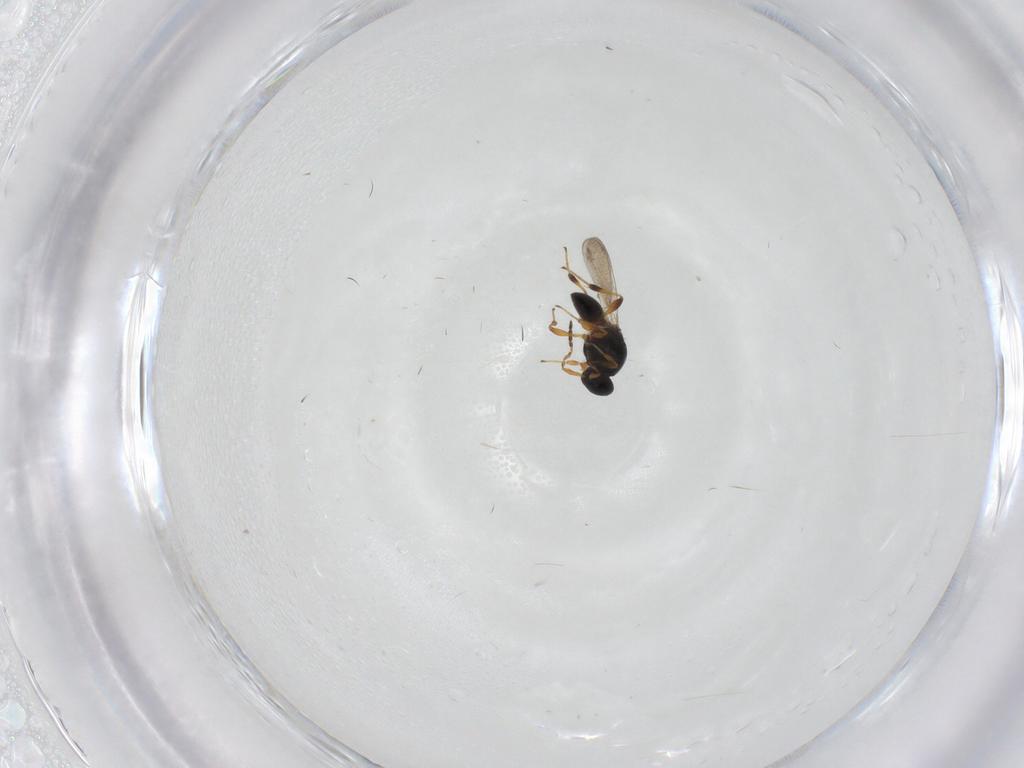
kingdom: Animalia
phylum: Arthropoda
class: Insecta
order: Hymenoptera
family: Platygastridae
